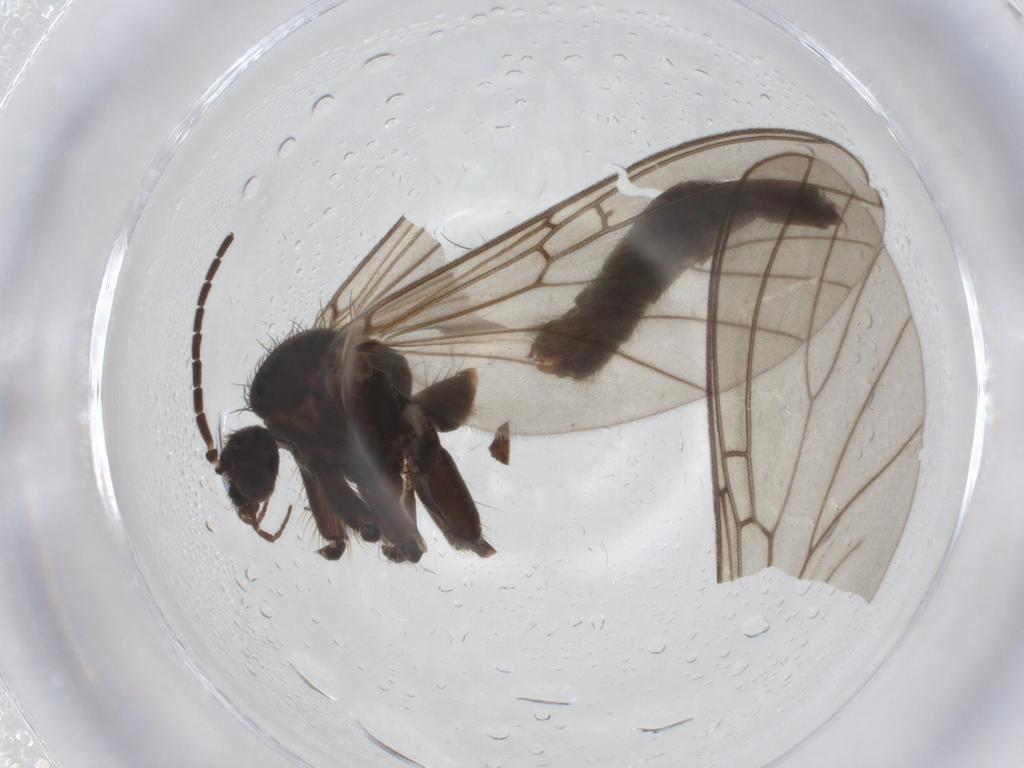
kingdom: Animalia
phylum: Arthropoda
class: Insecta
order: Diptera
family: Mycetophilidae
